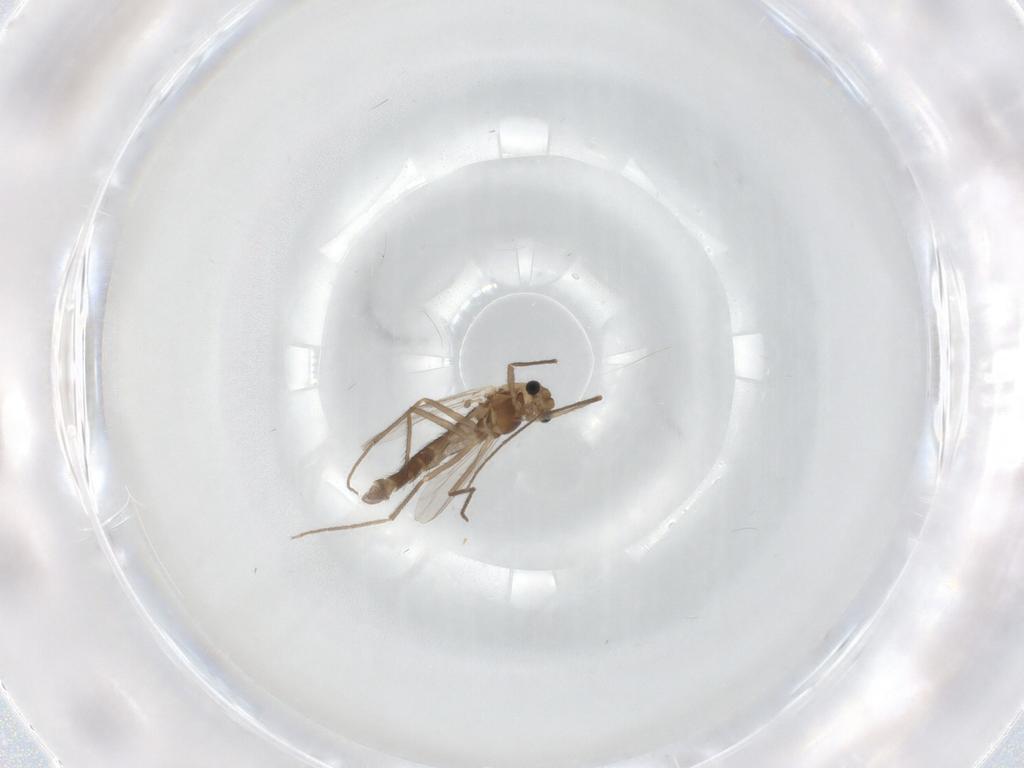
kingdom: Animalia
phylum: Arthropoda
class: Insecta
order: Diptera
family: Chironomidae
